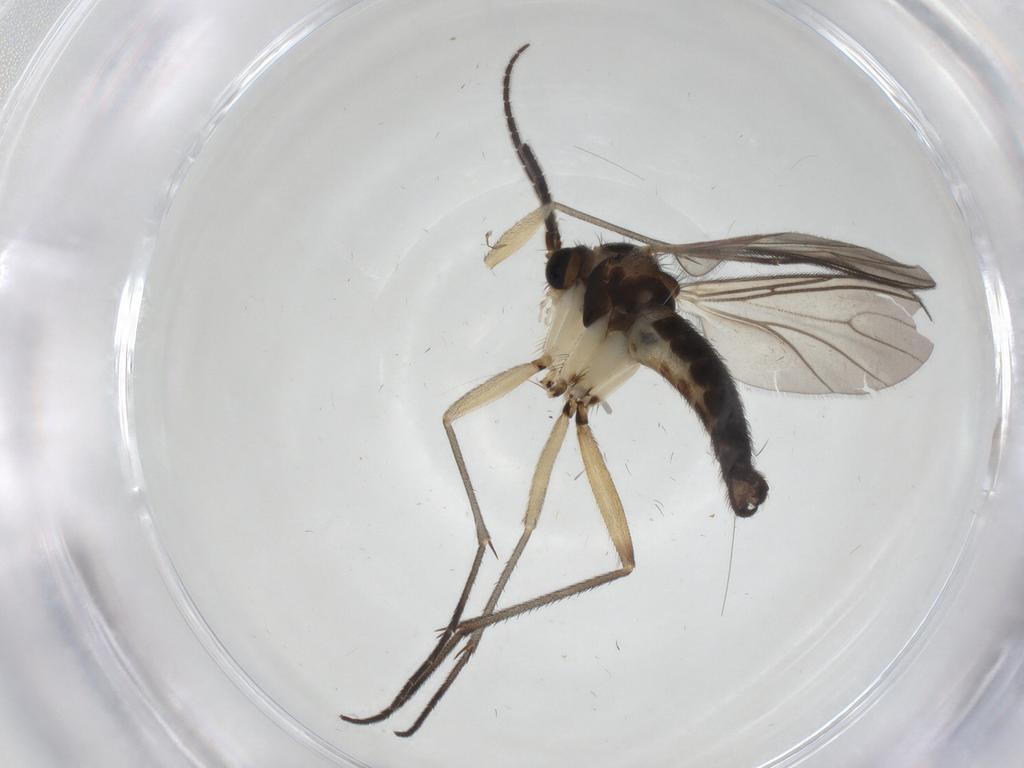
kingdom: Animalia
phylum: Arthropoda
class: Insecta
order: Diptera
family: Sciaridae
